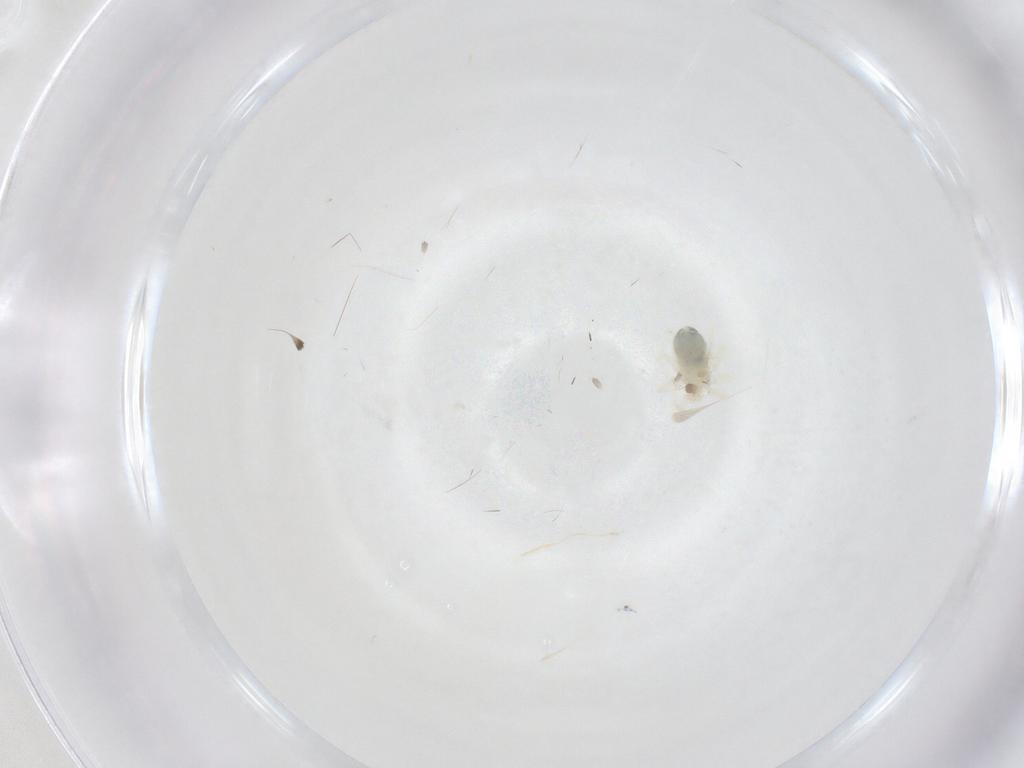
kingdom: Animalia
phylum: Arthropoda
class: Arachnida
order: Trombidiformes
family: Anystidae
